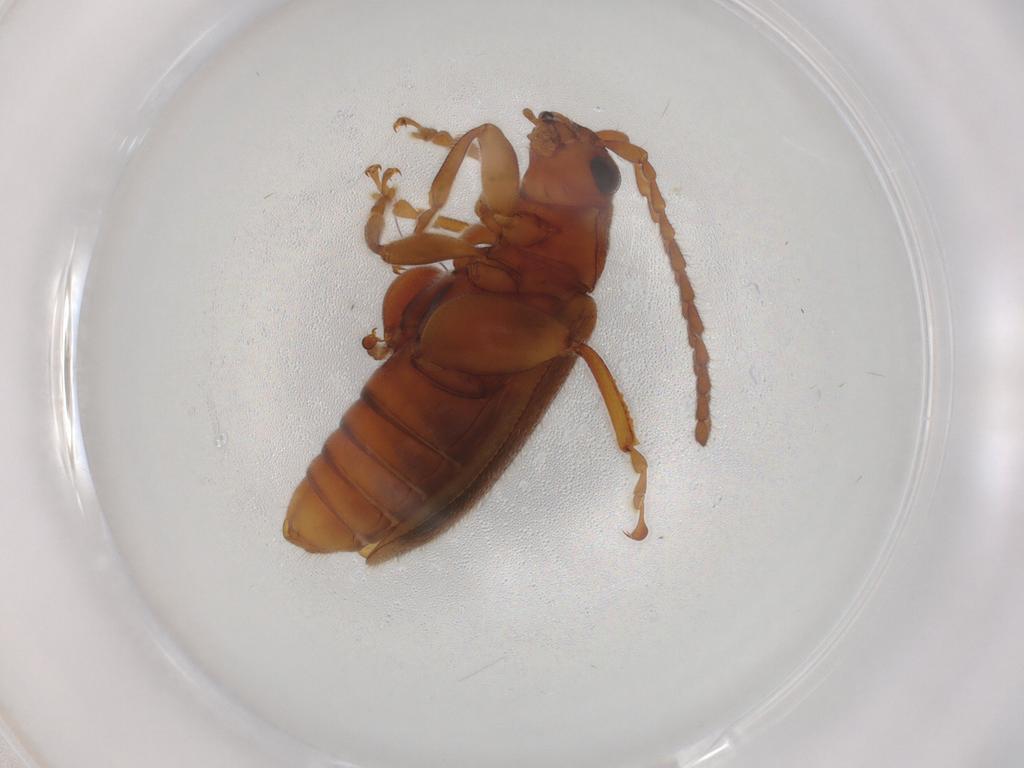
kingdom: Animalia
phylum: Arthropoda
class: Insecta
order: Coleoptera
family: Chrysomelidae
